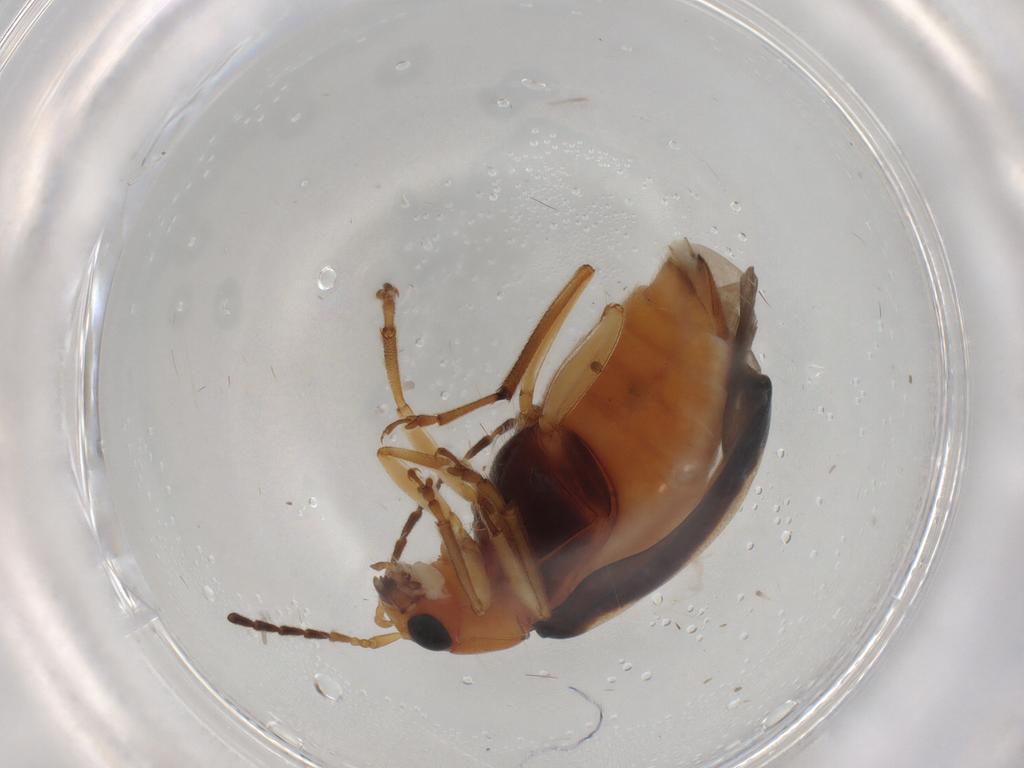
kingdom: Animalia
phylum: Arthropoda
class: Insecta
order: Coleoptera
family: Chrysomelidae
